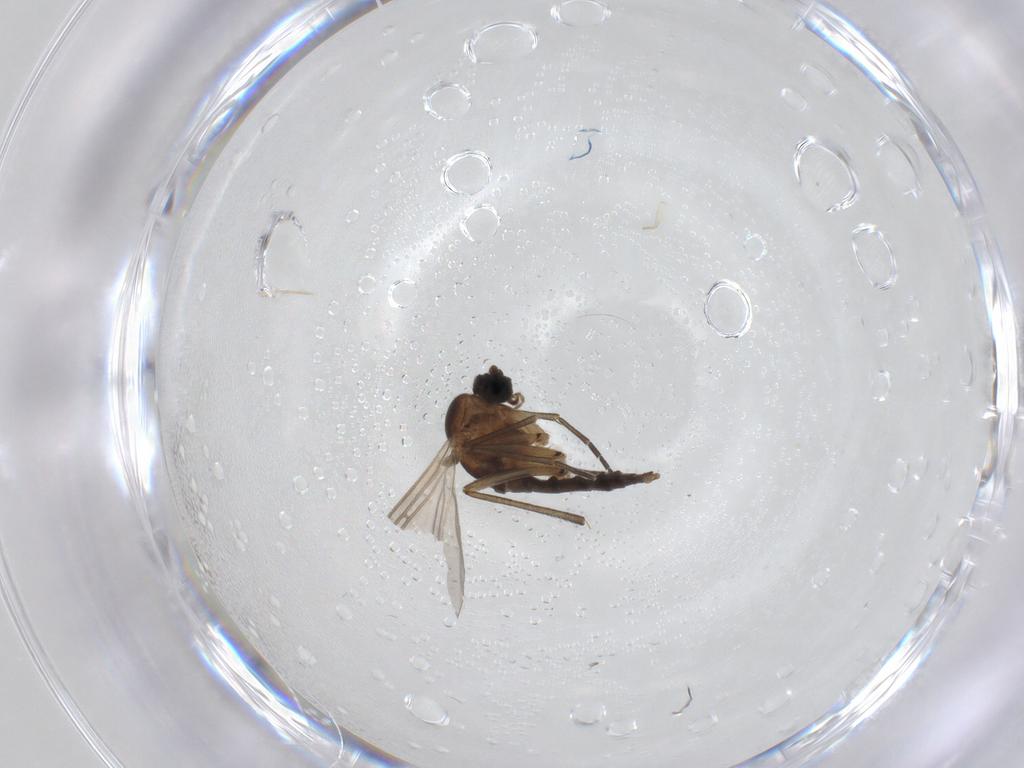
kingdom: Animalia
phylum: Arthropoda
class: Insecta
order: Diptera
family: Sciaridae
